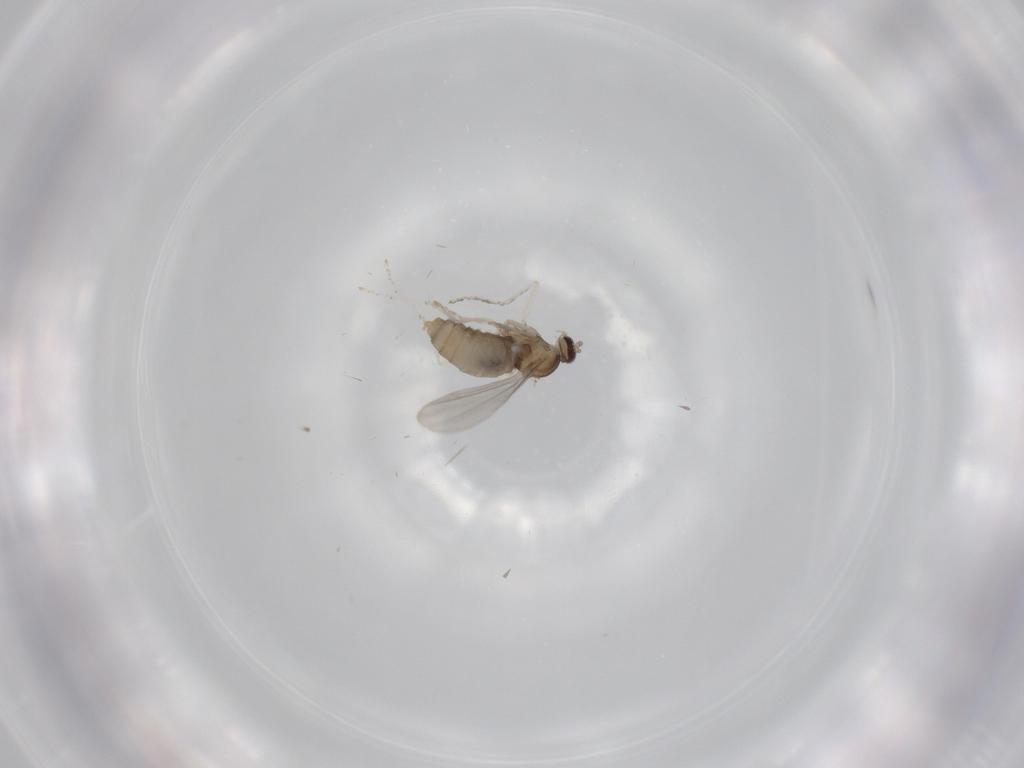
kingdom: Animalia
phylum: Arthropoda
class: Insecta
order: Diptera
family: Cecidomyiidae
